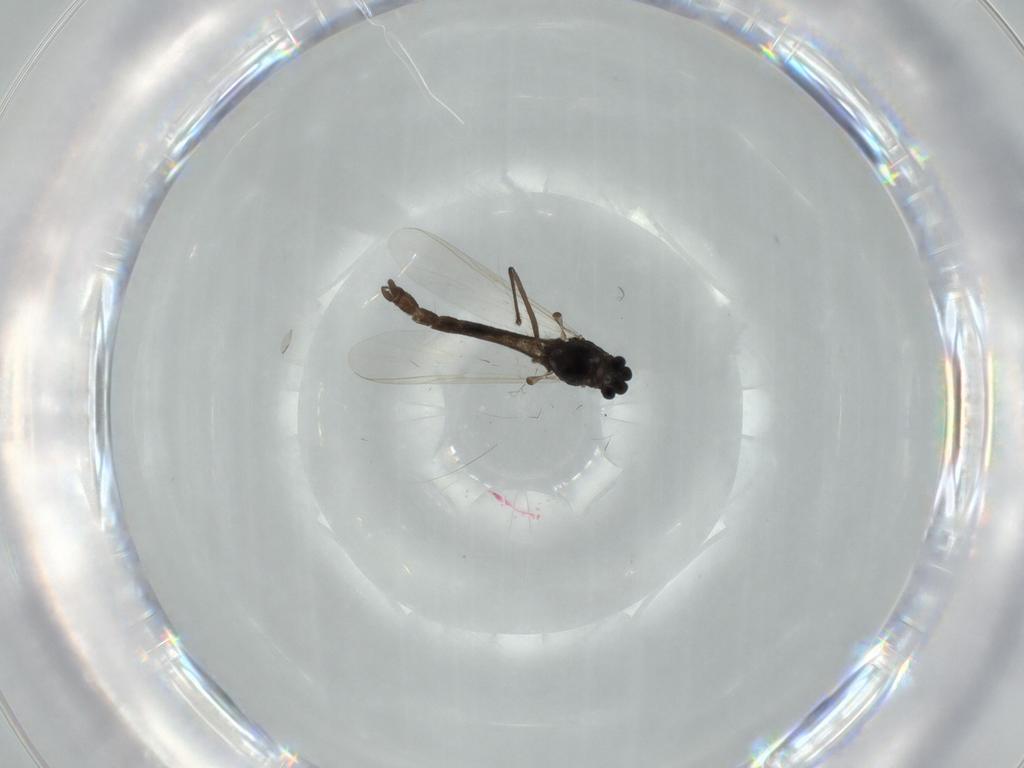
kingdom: Animalia
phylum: Arthropoda
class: Insecta
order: Diptera
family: Chironomidae
